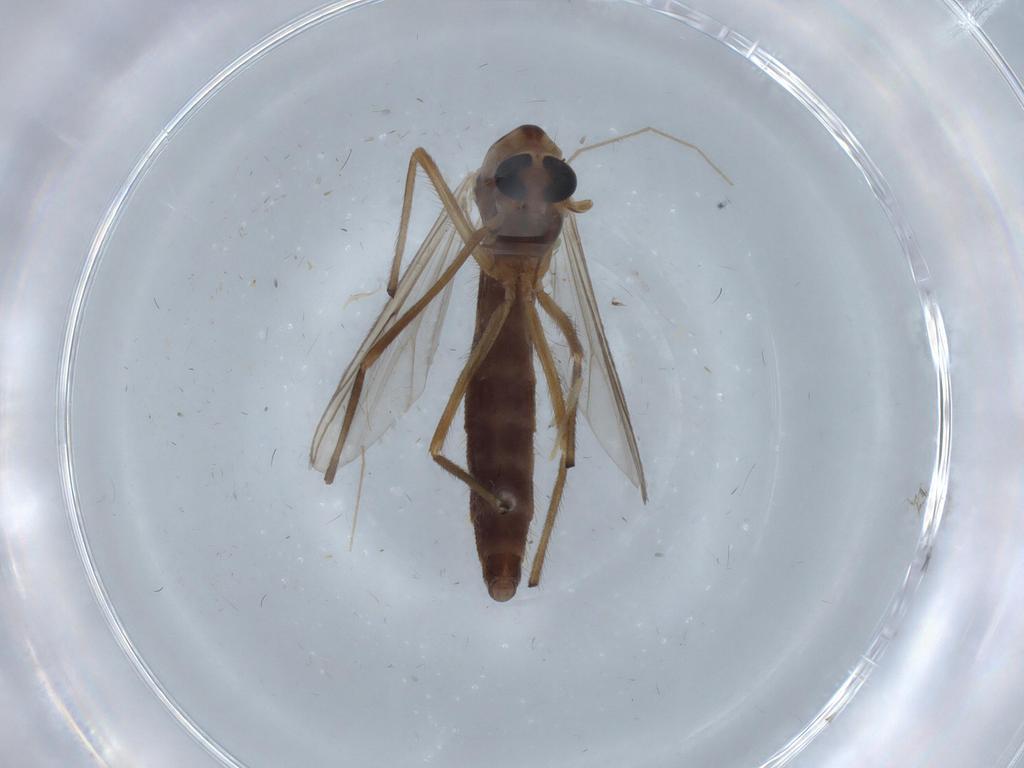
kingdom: Animalia
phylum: Arthropoda
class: Insecta
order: Diptera
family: Cecidomyiidae
